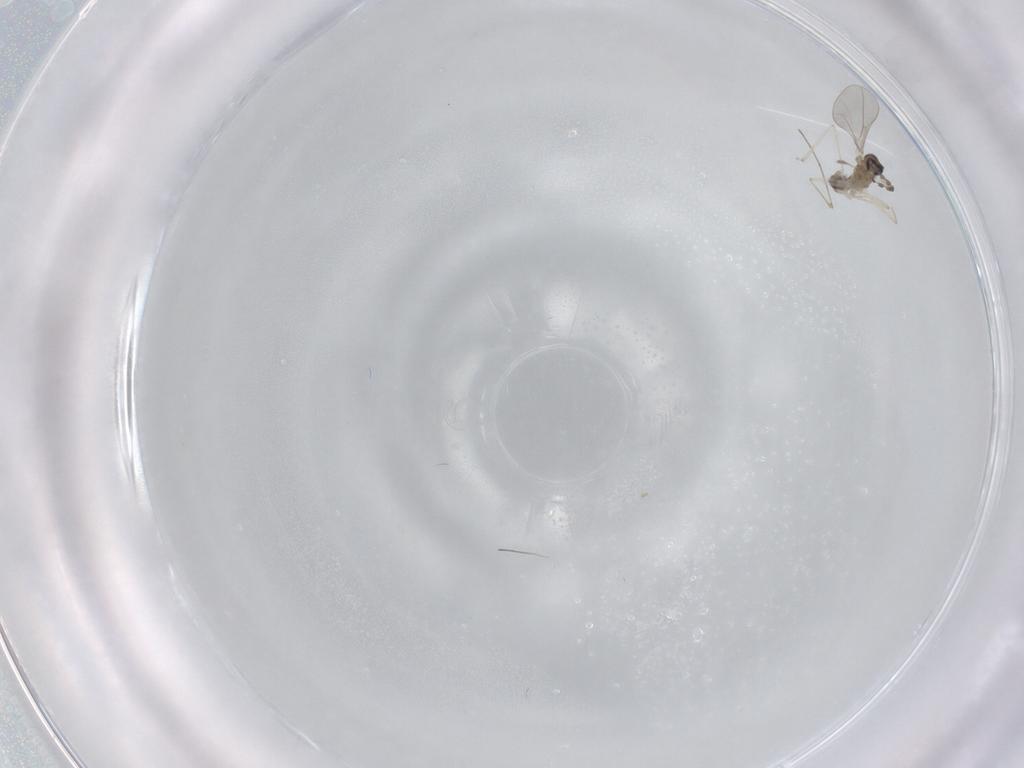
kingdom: Animalia
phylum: Arthropoda
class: Insecta
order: Diptera
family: Cecidomyiidae
